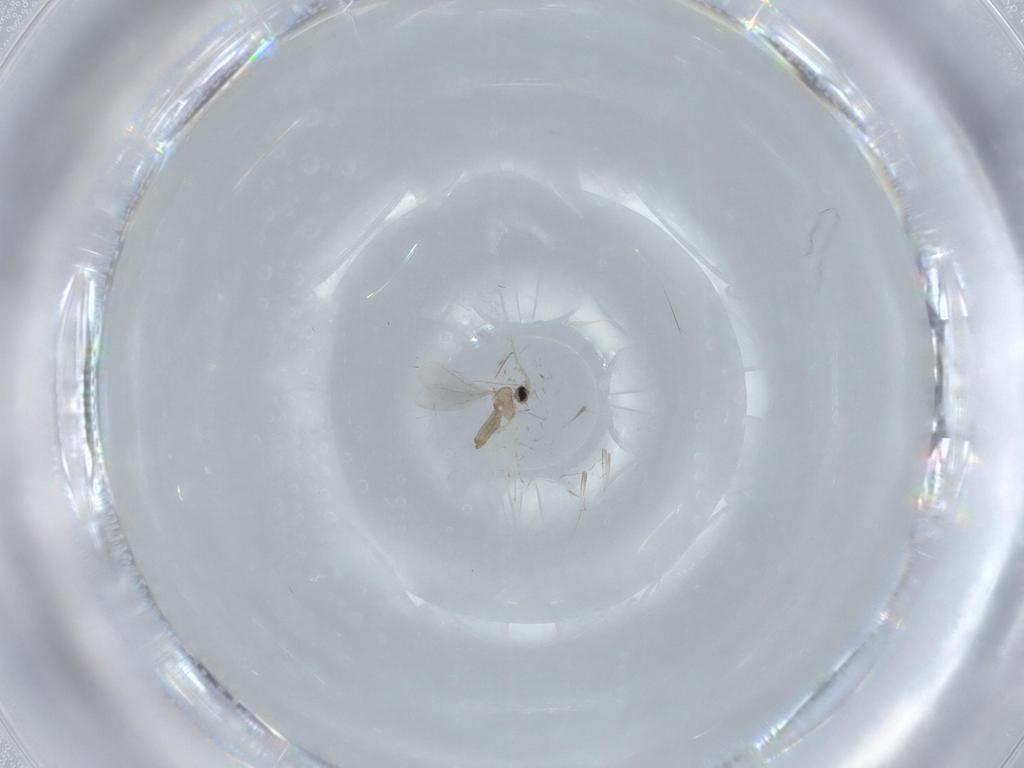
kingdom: Animalia
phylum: Arthropoda
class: Insecta
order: Diptera
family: Cecidomyiidae
